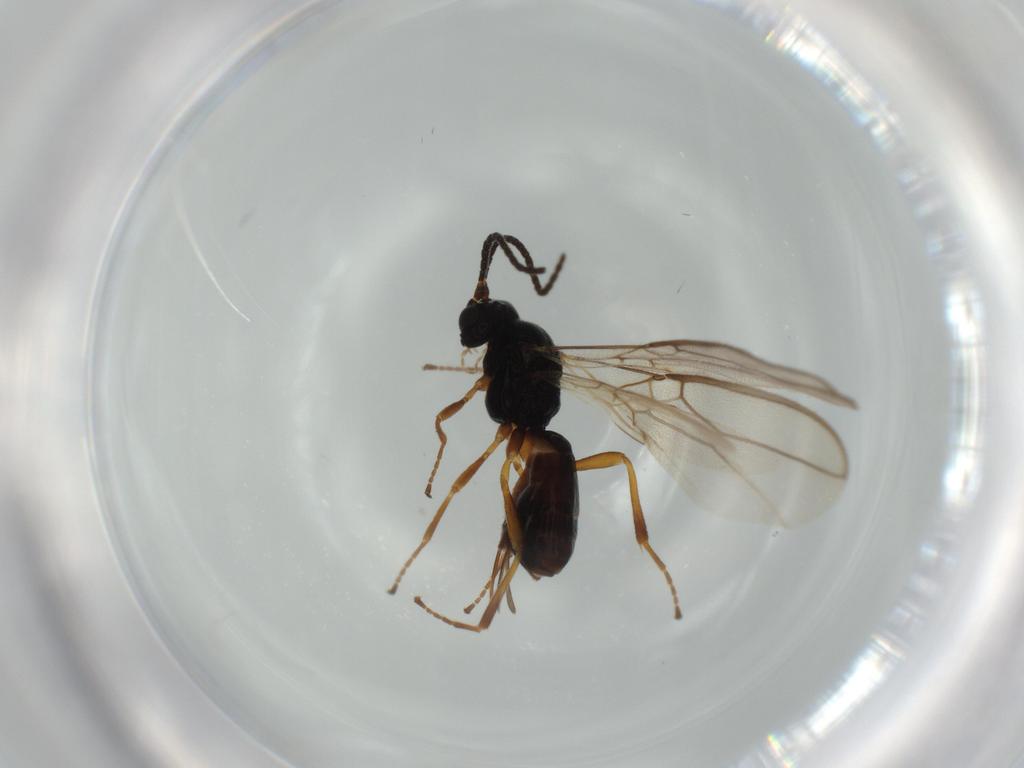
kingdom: Animalia
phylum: Arthropoda
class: Insecta
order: Hymenoptera
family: Braconidae
